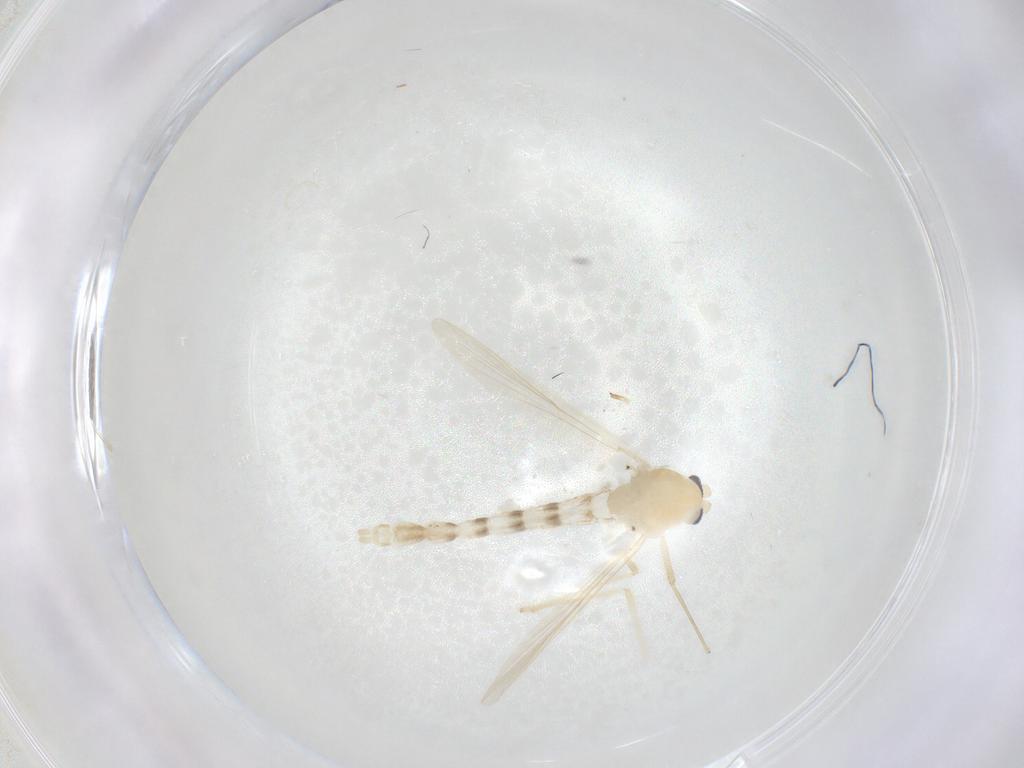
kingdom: Animalia
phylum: Arthropoda
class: Insecta
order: Diptera
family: Chironomidae
